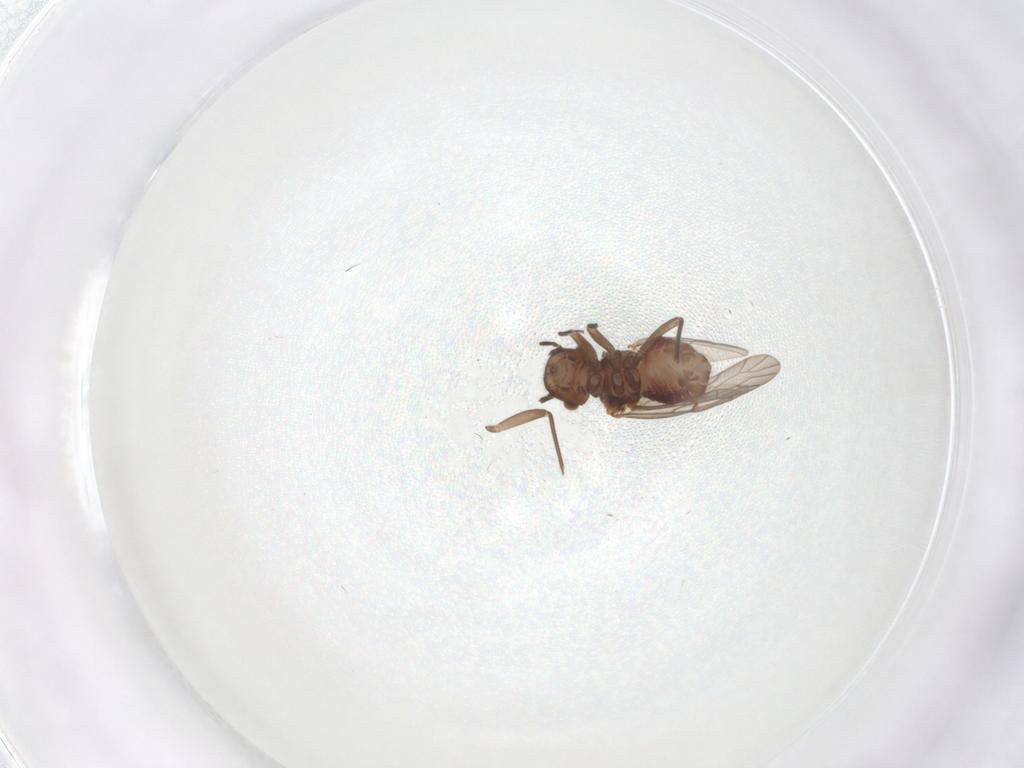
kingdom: Animalia
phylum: Arthropoda
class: Insecta
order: Psocodea
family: Ectopsocidae
